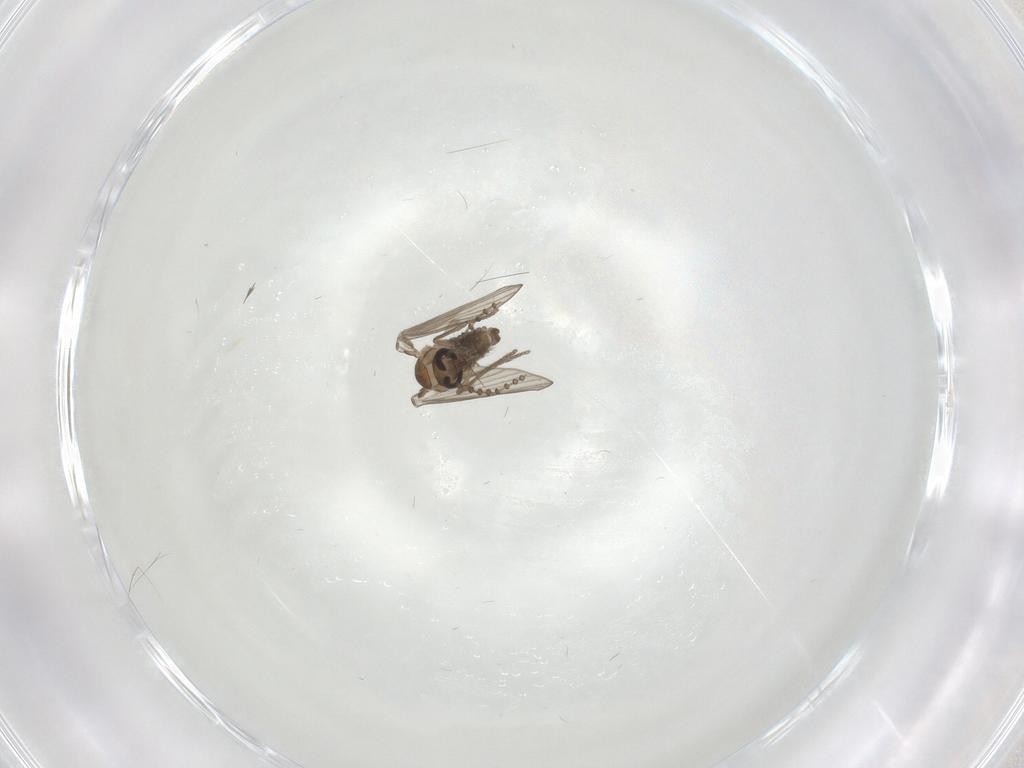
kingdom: Animalia
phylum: Arthropoda
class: Insecta
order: Diptera
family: Psychodidae
